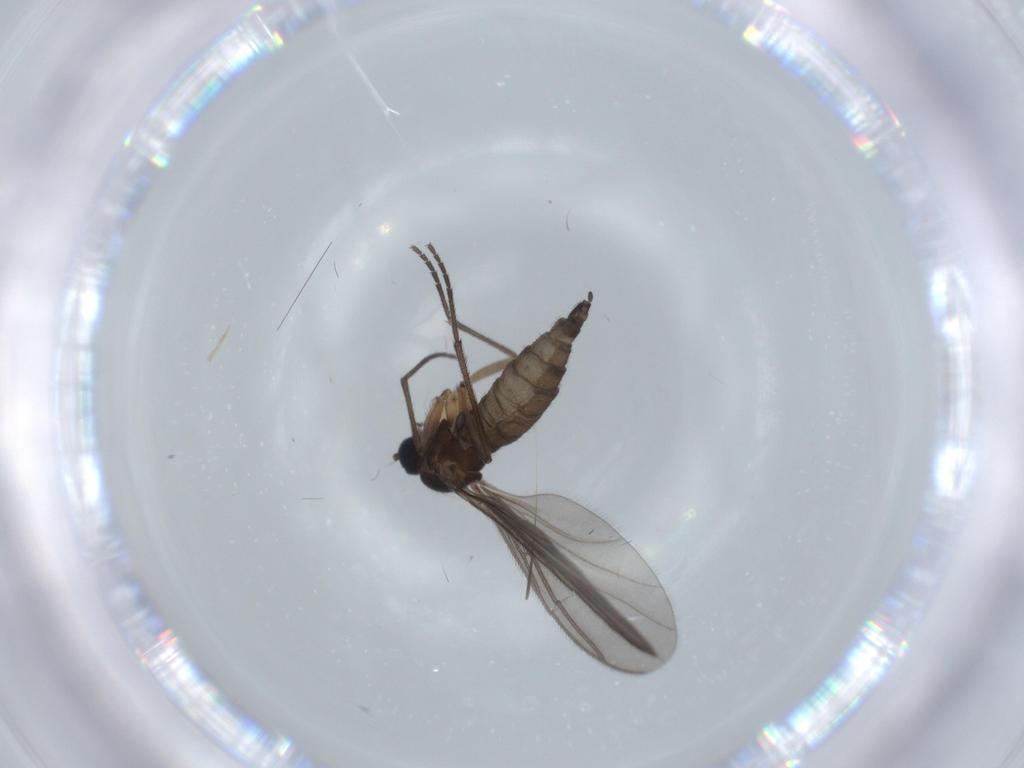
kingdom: Animalia
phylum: Arthropoda
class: Insecta
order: Diptera
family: Sciaridae
